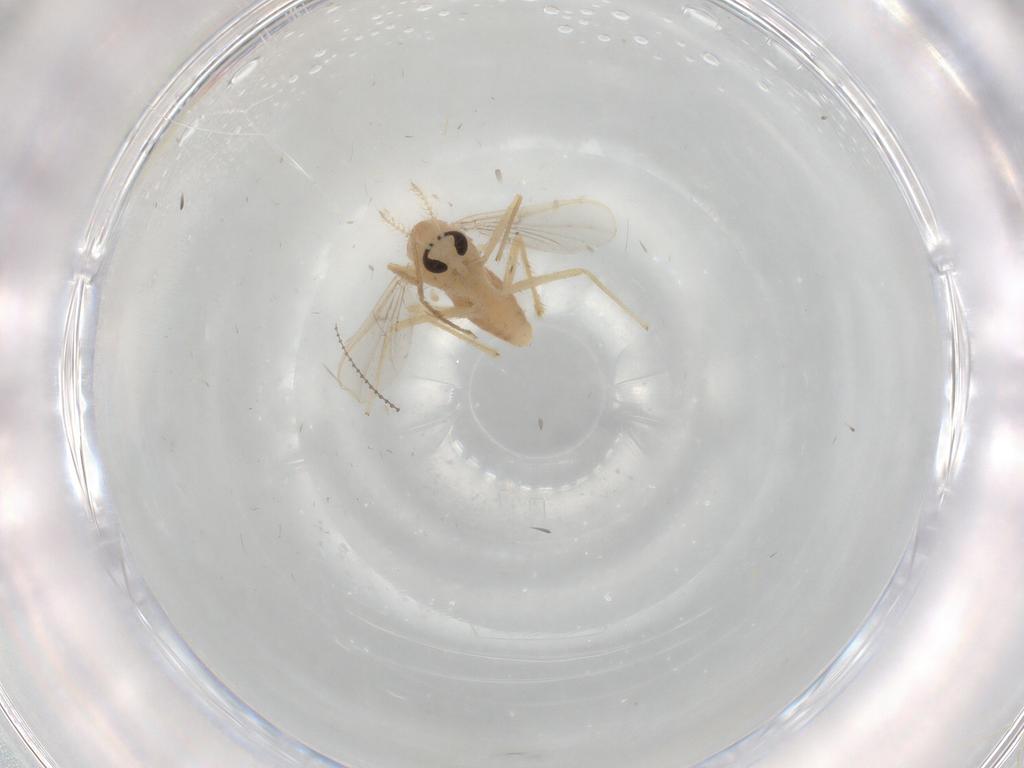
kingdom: Animalia
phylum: Arthropoda
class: Insecta
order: Diptera
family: Chironomidae
